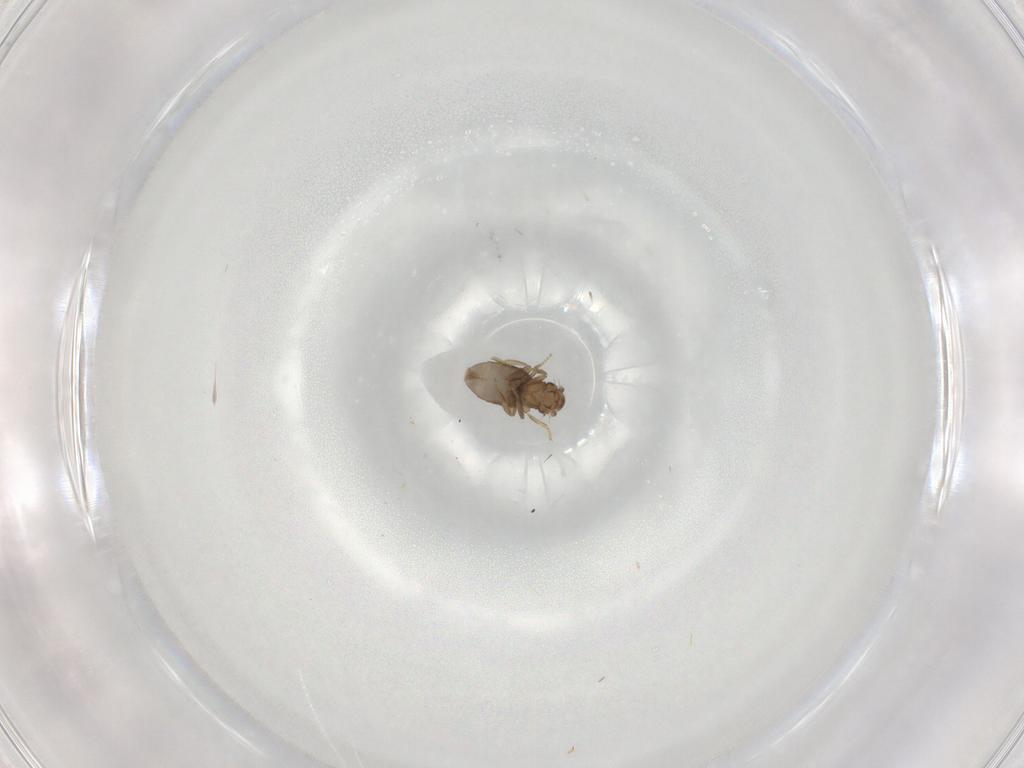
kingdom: Animalia
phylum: Arthropoda
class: Insecta
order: Diptera
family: Phoridae
